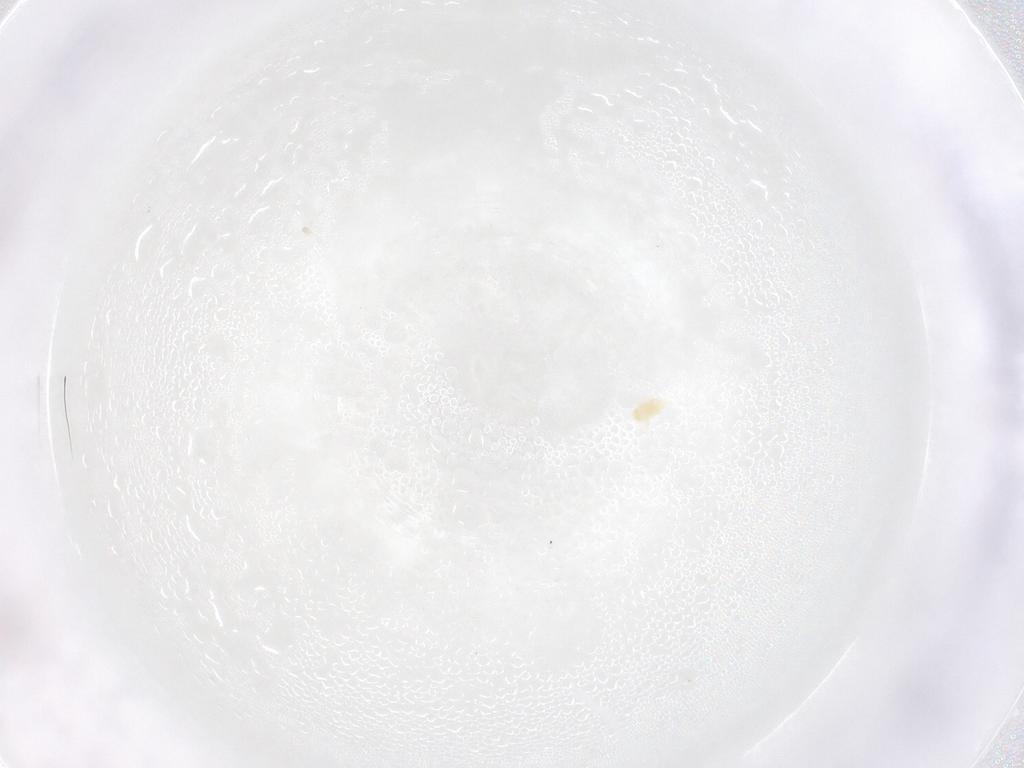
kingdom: Animalia
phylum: Arthropoda
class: Arachnida
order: Trombidiformes
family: Eupodidae
